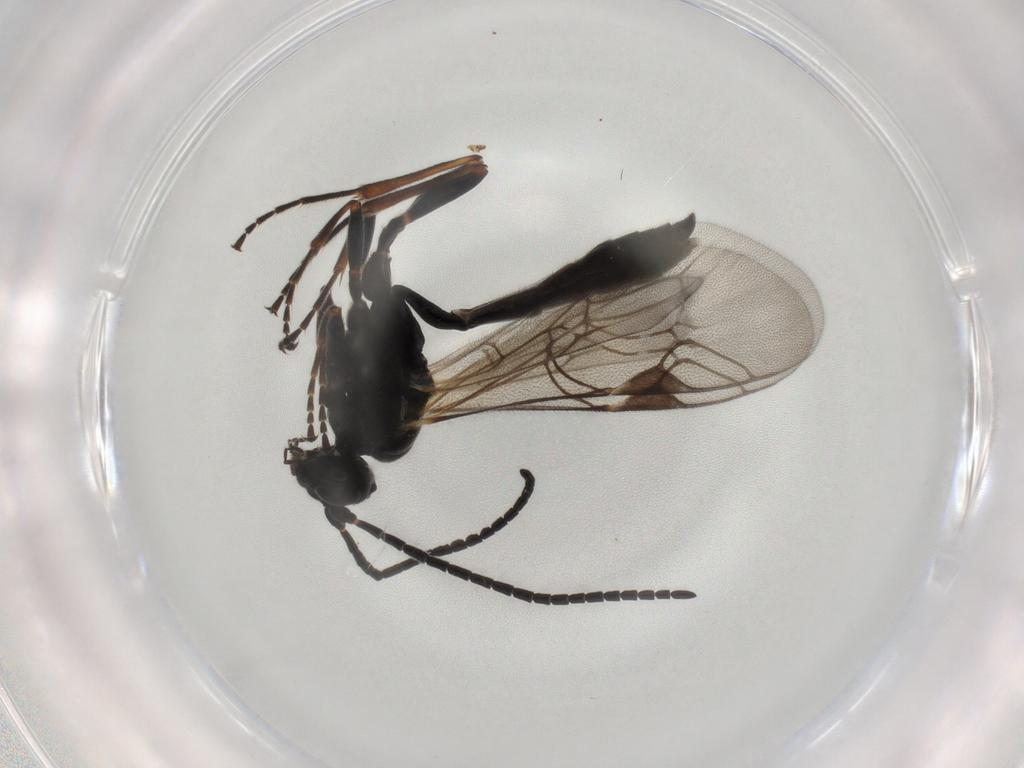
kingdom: Animalia
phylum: Arthropoda
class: Insecta
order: Hymenoptera
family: Ichneumonidae
